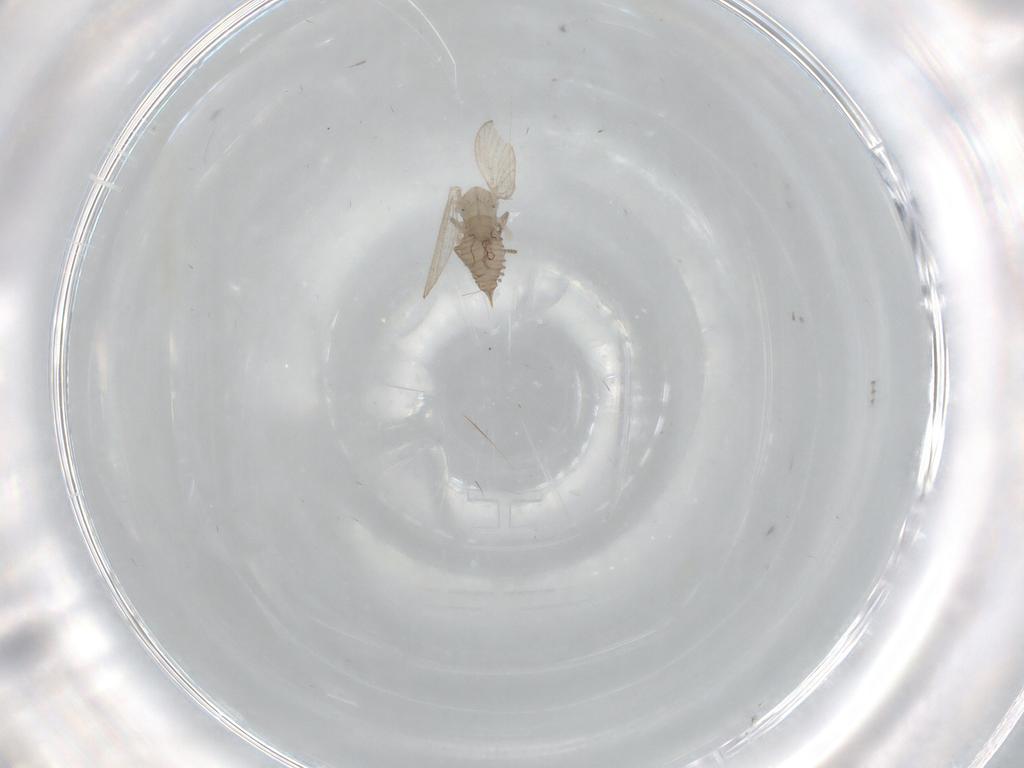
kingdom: Animalia
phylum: Arthropoda
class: Insecta
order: Diptera
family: Psychodidae
